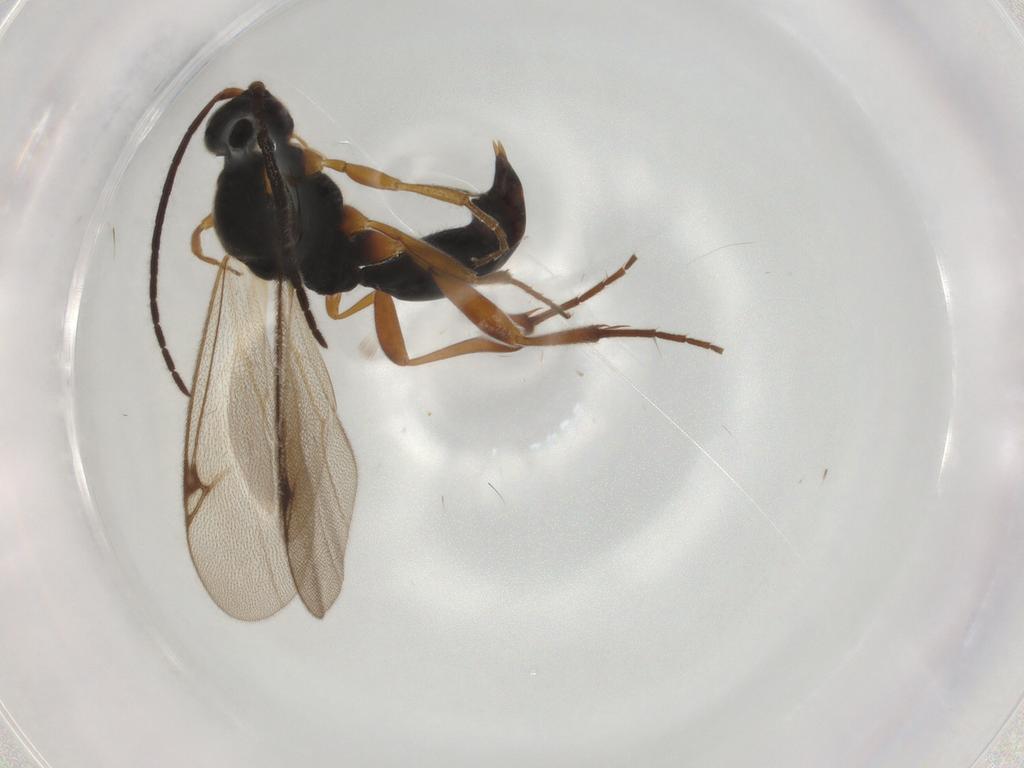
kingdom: Animalia
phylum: Arthropoda
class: Insecta
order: Hymenoptera
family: Proctotrupidae
